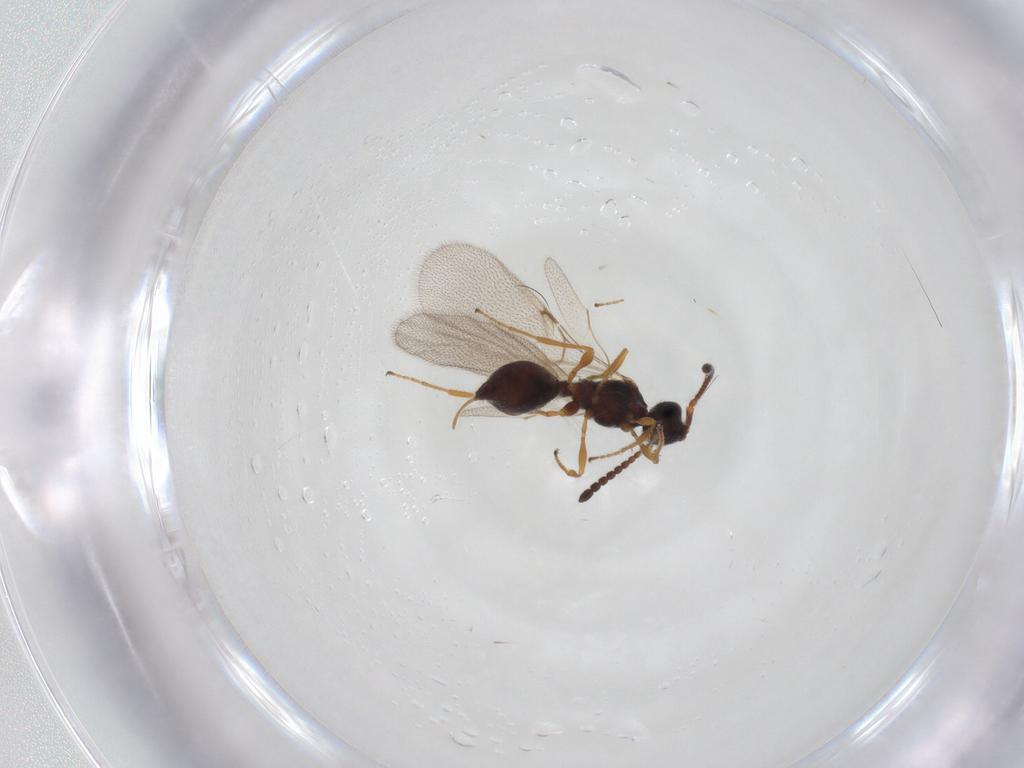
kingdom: Animalia
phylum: Arthropoda
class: Insecta
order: Hymenoptera
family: Diapriidae
